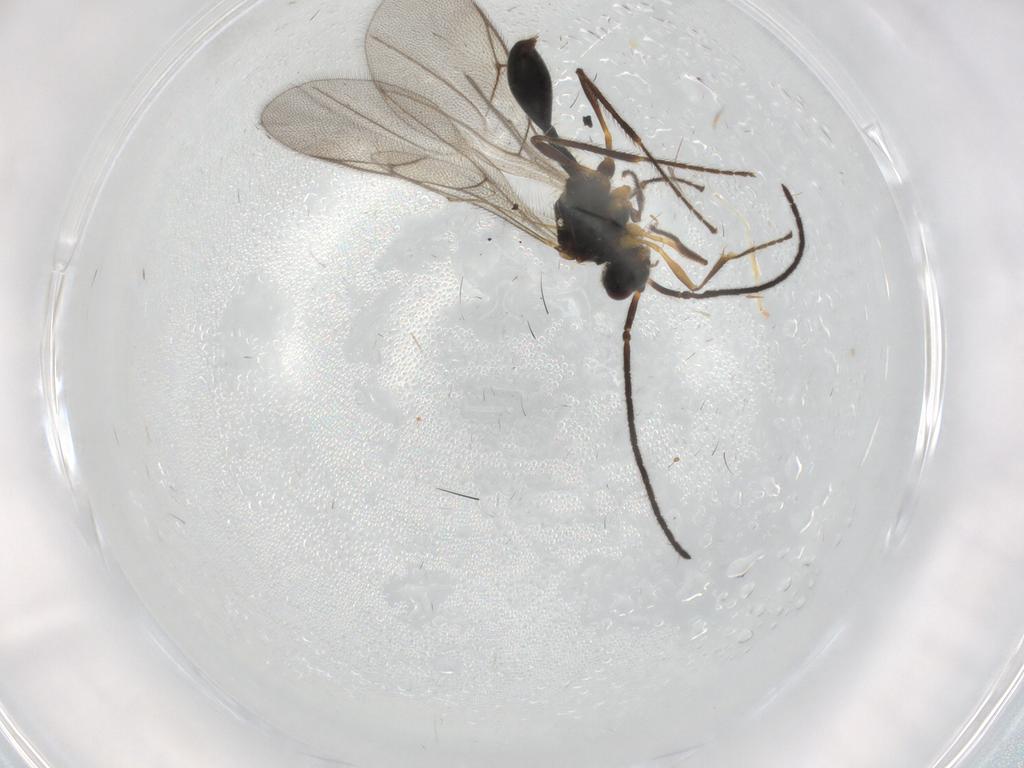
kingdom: Animalia
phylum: Arthropoda
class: Insecta
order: Hymenoptera
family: Diapriidae
